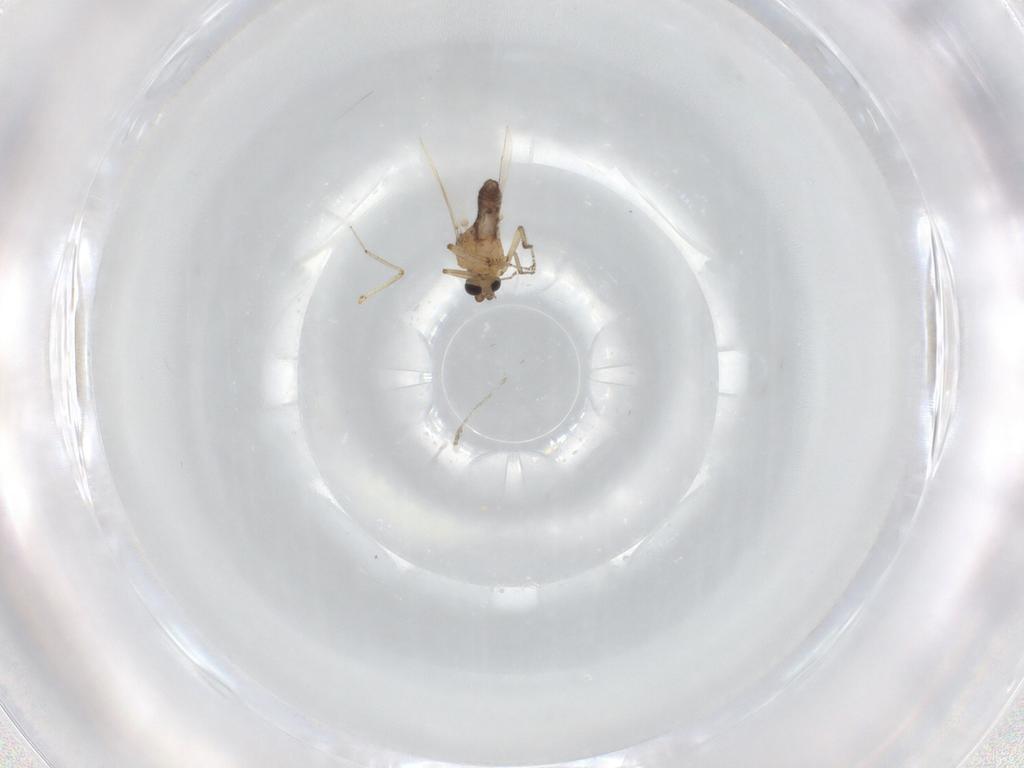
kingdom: Animalia
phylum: Arthropoda
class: Insecta
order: Diptera
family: Ceratopogonidae
